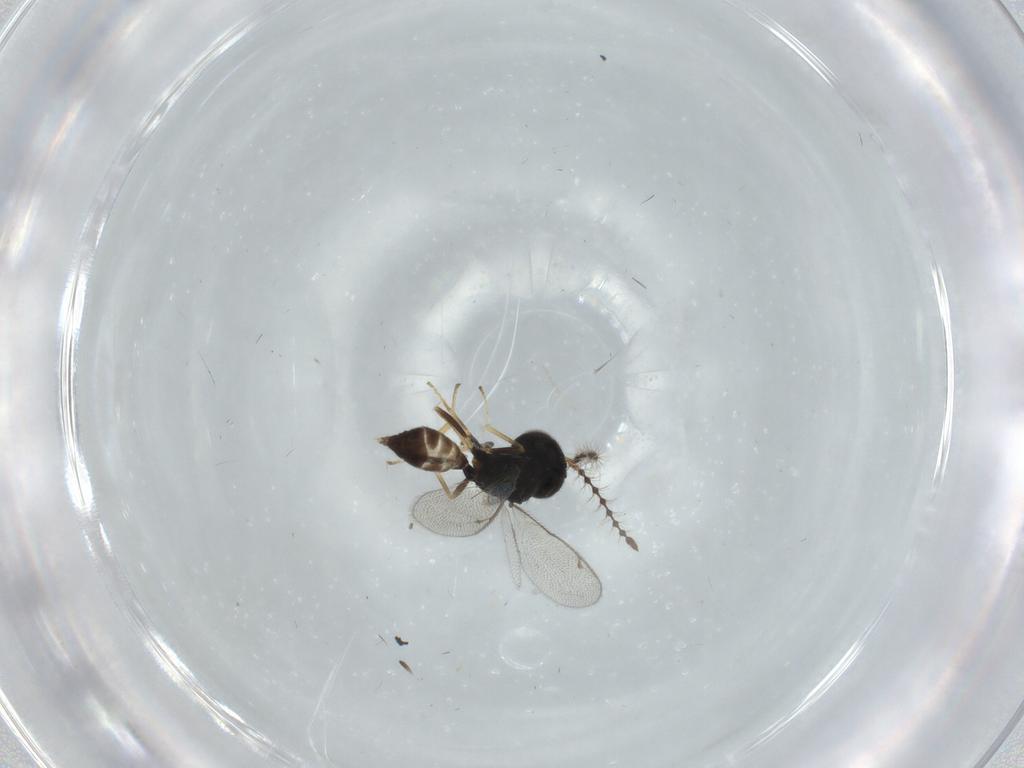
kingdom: Animalia
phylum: Arthropoda
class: Insecta
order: Hymenoptera
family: Pteromalidae
